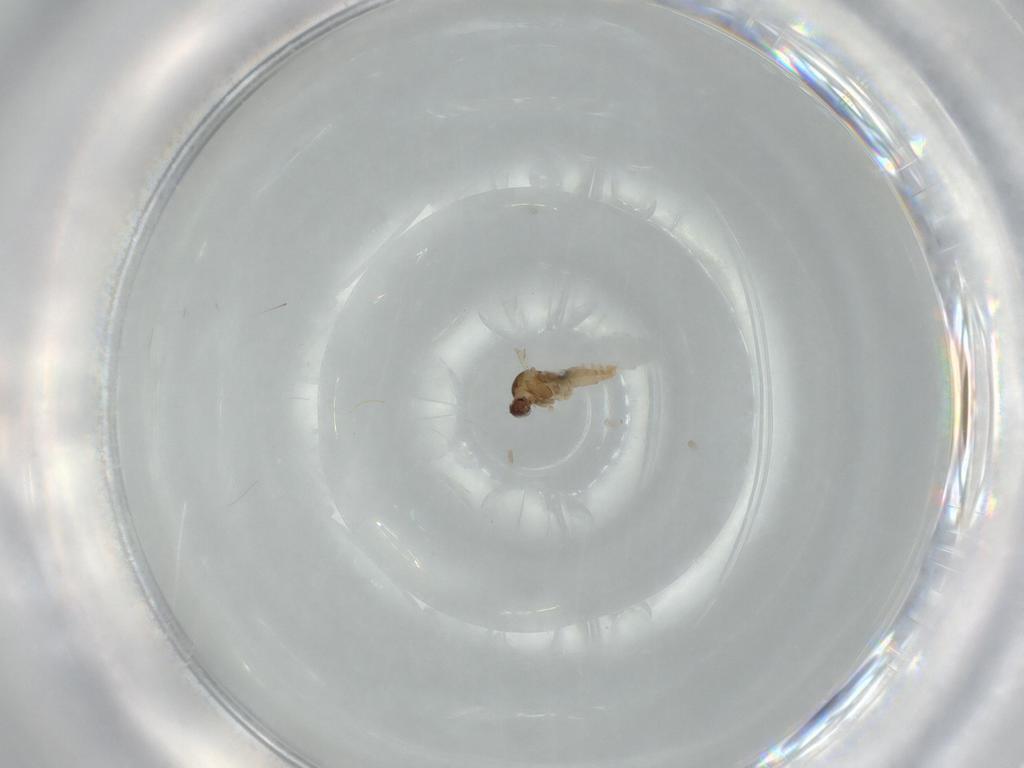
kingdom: Animalia
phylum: Arthropoda
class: Insecta
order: Diptera
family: Cecidomyiidae
